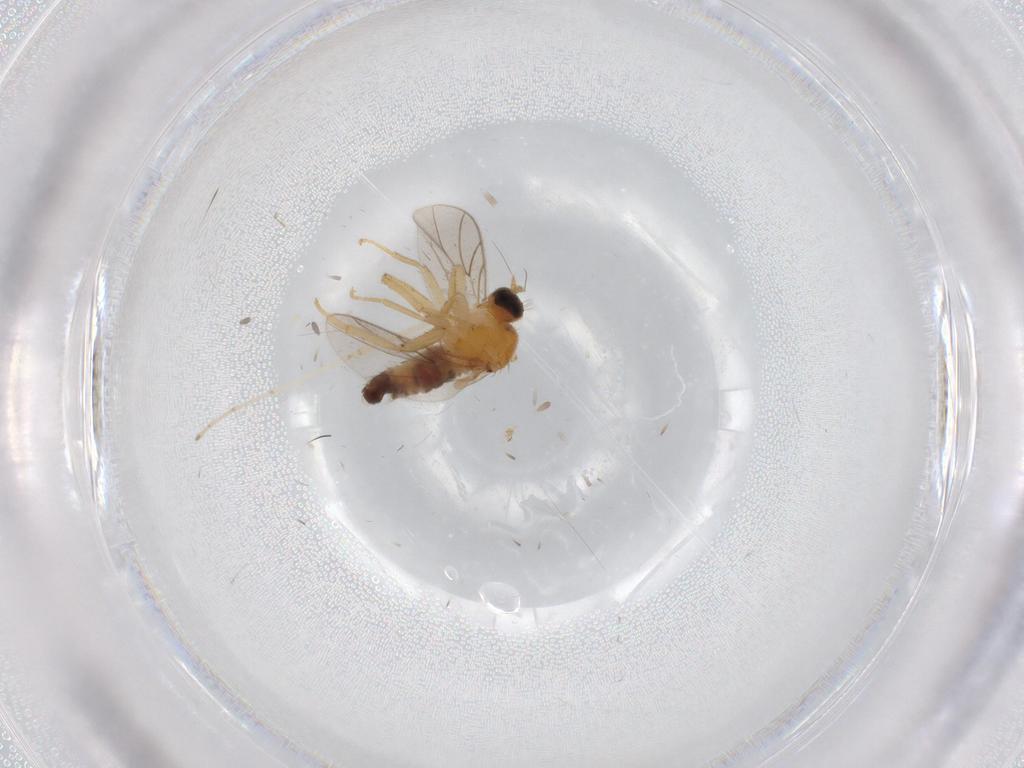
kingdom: Animalia
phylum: Arthropoda
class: Insecta
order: Diptera
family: Hybotidae
